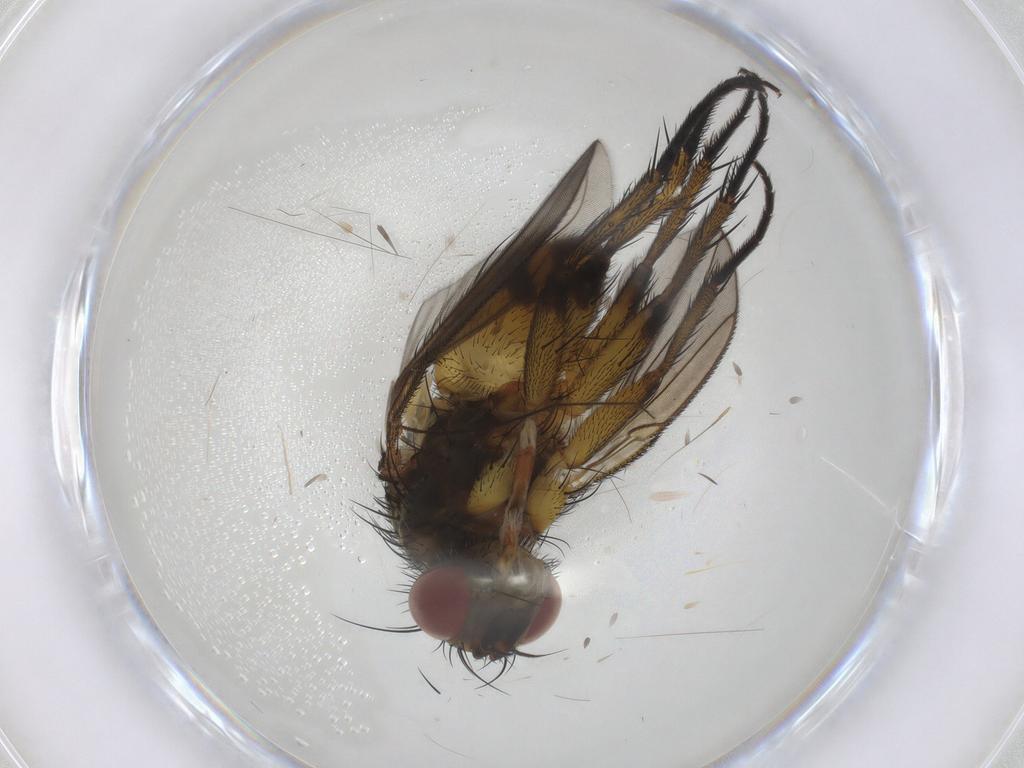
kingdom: Animalia
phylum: Arthropoda
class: Insecta
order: Diptera
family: Tachinidae
